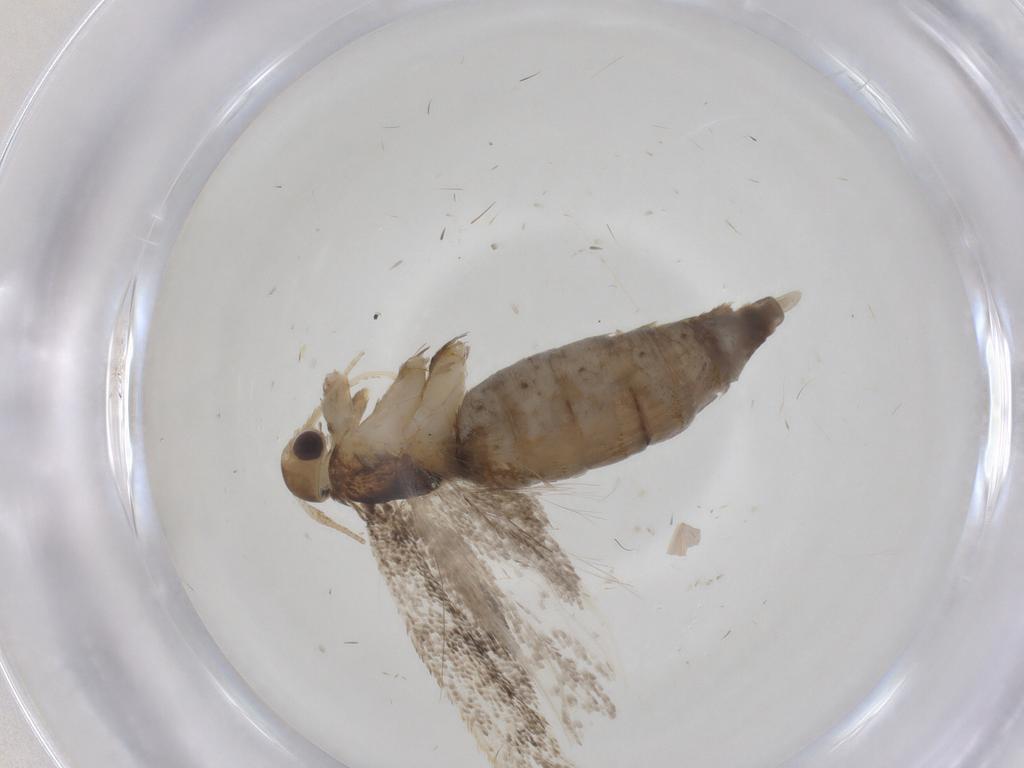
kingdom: Animalia
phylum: Arthropoda
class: Insecta
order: Lepidoptera
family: Lecithoceridae
